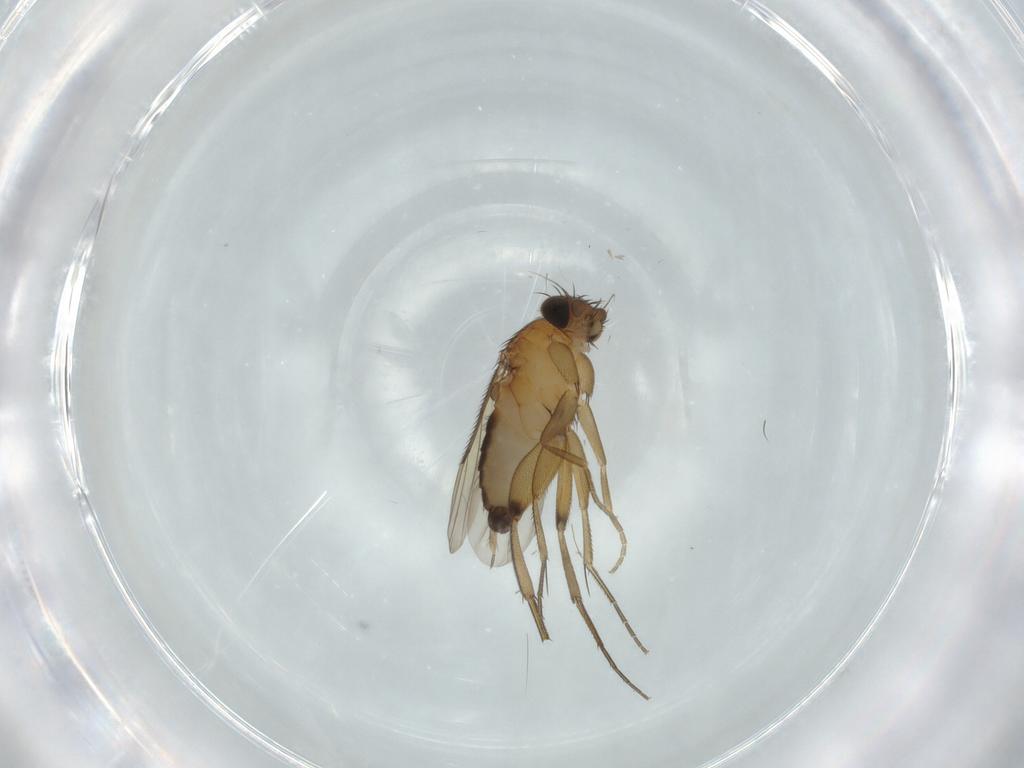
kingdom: Animalia
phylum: Arthropoda
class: Insecta
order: Diptera
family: Phoridae
